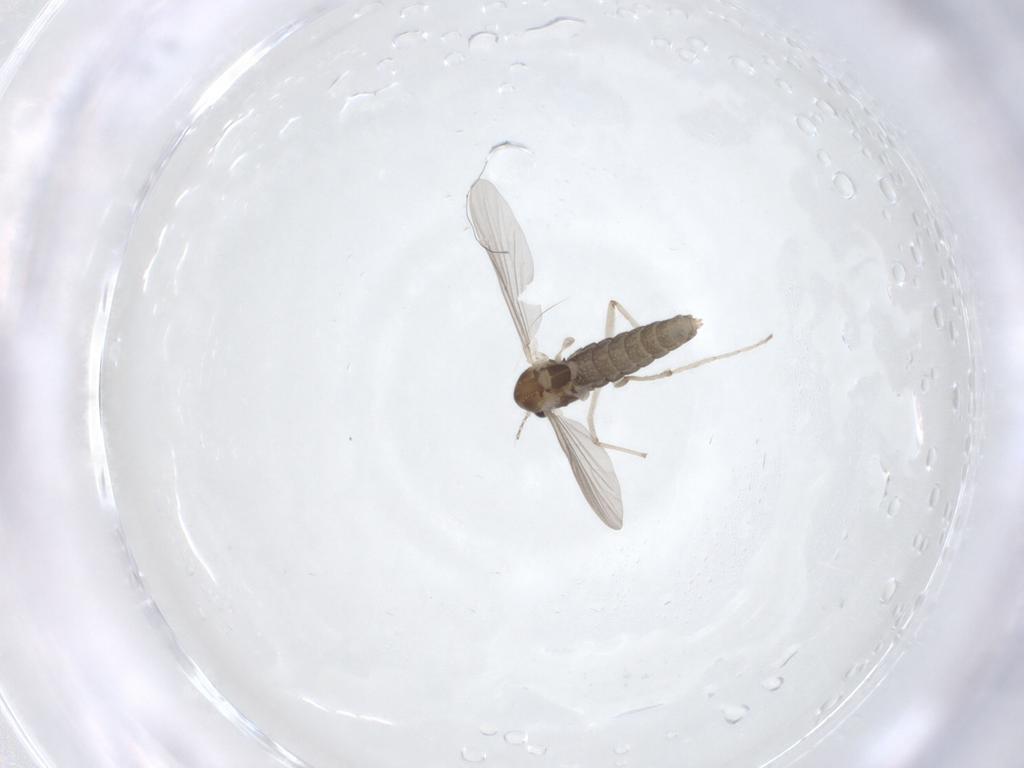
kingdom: Animalia
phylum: Arthropoda
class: Insecta
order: Diptera
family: Chironomidae
